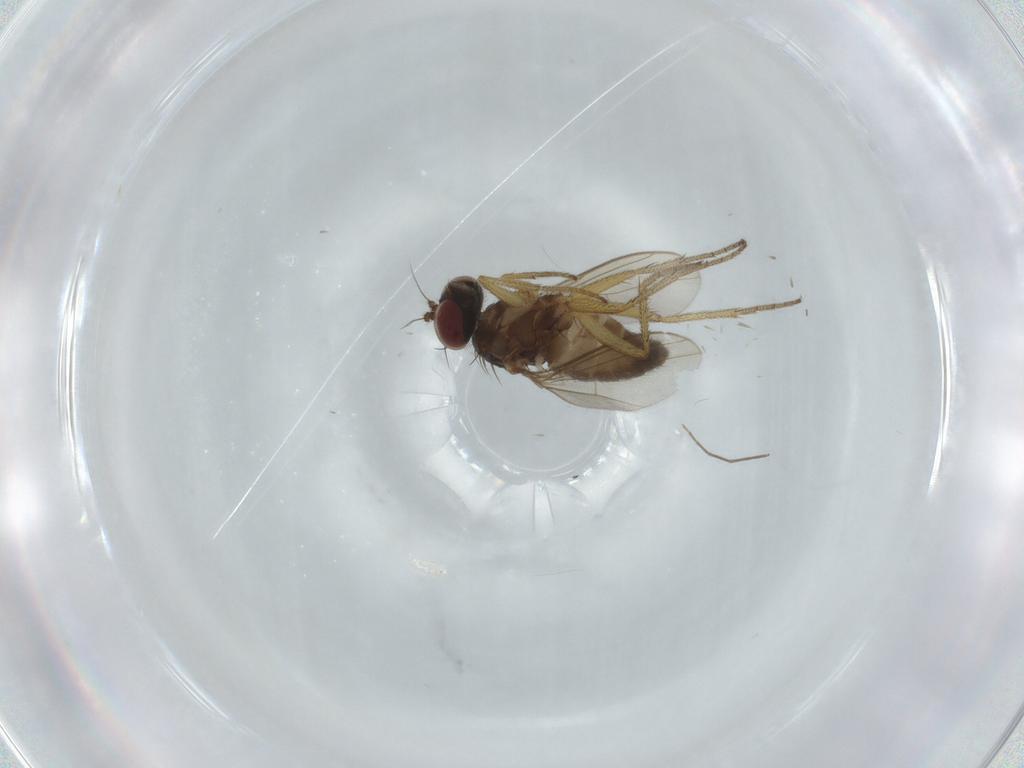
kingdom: Animalia
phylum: Arthropoda
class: Insecta
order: Diptera
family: Dolichopodidae
